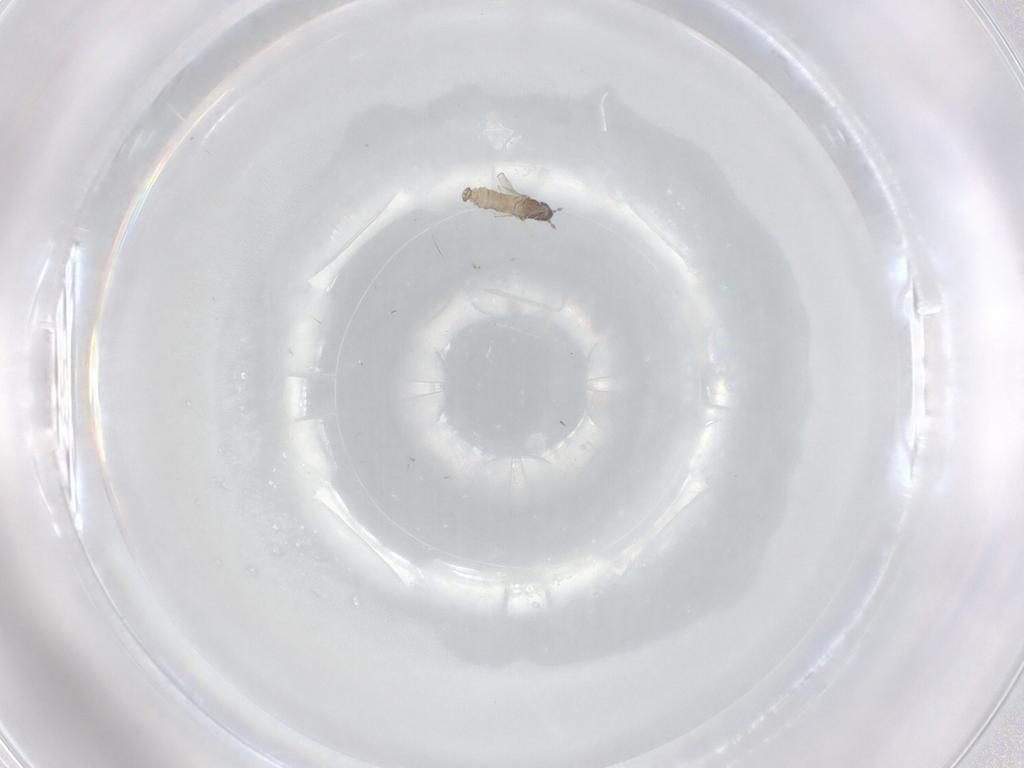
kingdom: Animalia
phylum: Arthropoda
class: Insecta
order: Diptera
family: Cecidomyiidae
